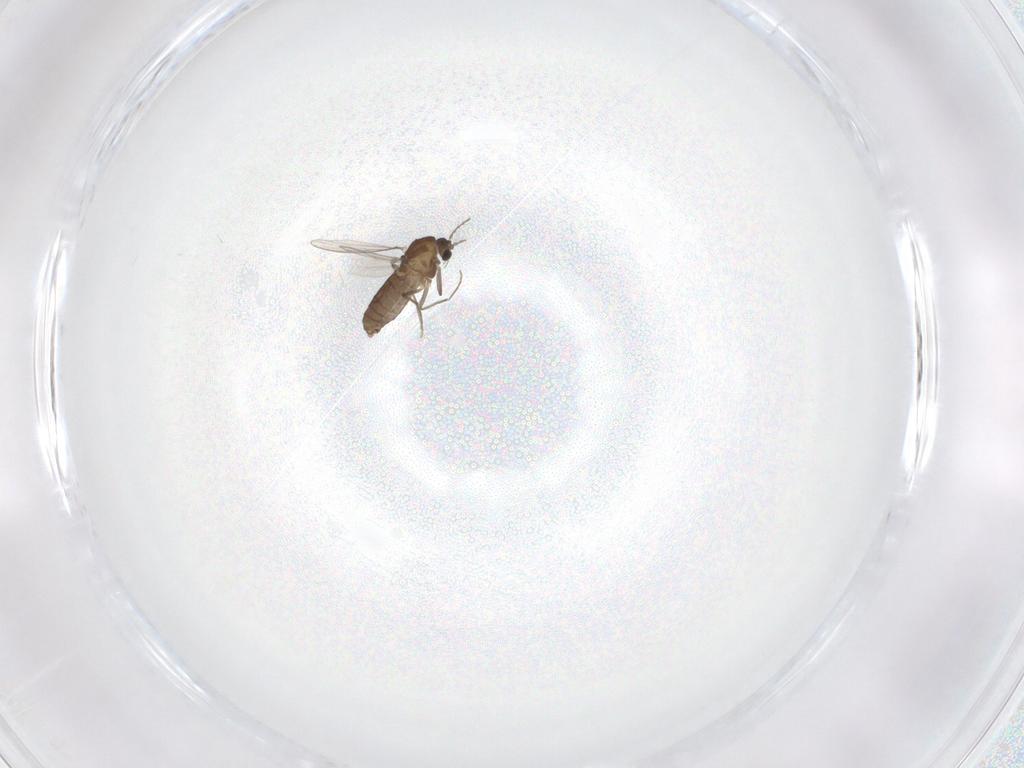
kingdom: Animalia
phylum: Arthropoda
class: Insecta
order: Diptera
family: Chironomidae
